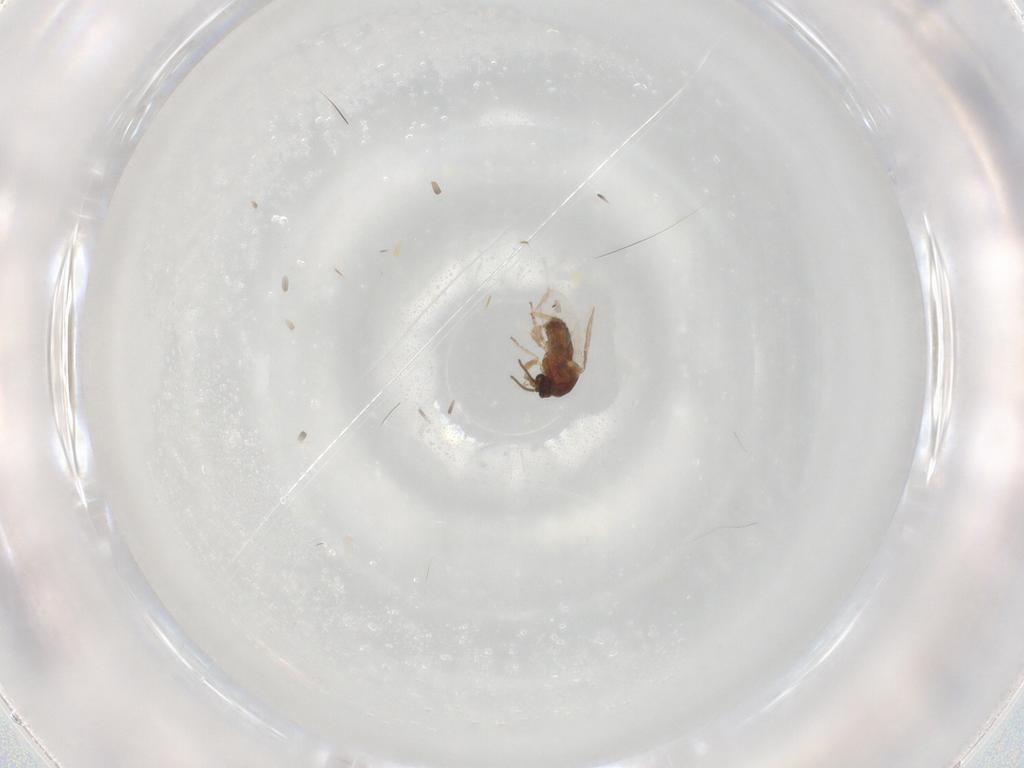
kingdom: Animalia
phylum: Arthropoda
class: Insecta
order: Diptera
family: Ceratopogonidae
